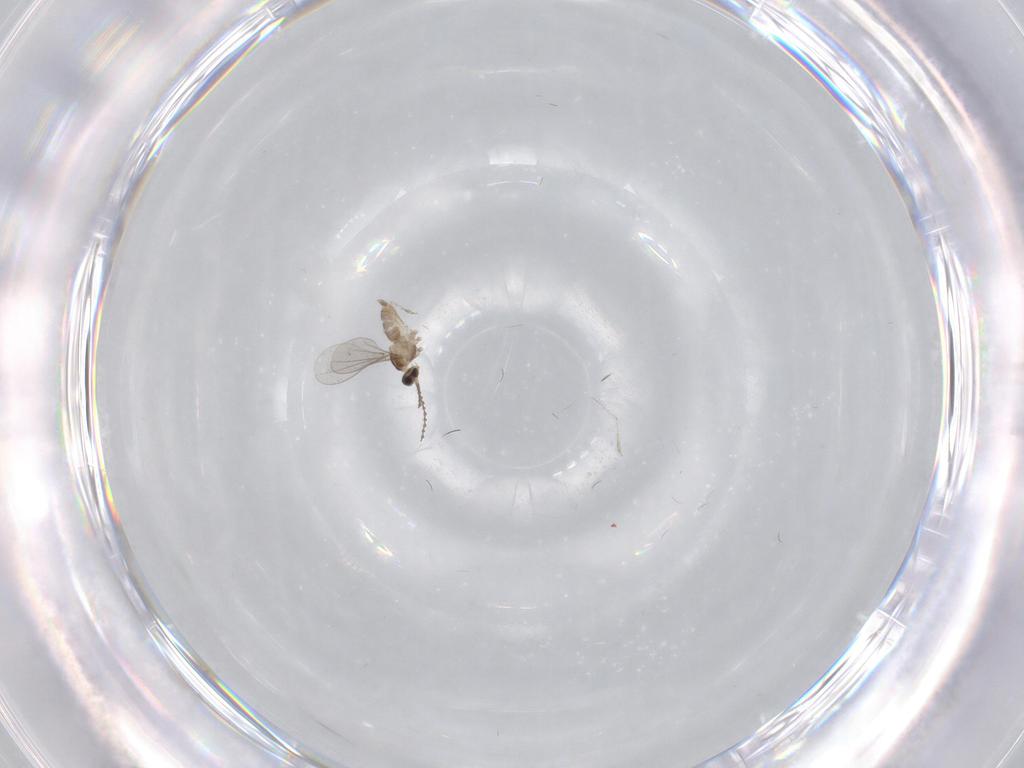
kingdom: Animalia
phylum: Arthropoda
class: Insecta
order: Diptera
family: Cecidomyiidae
